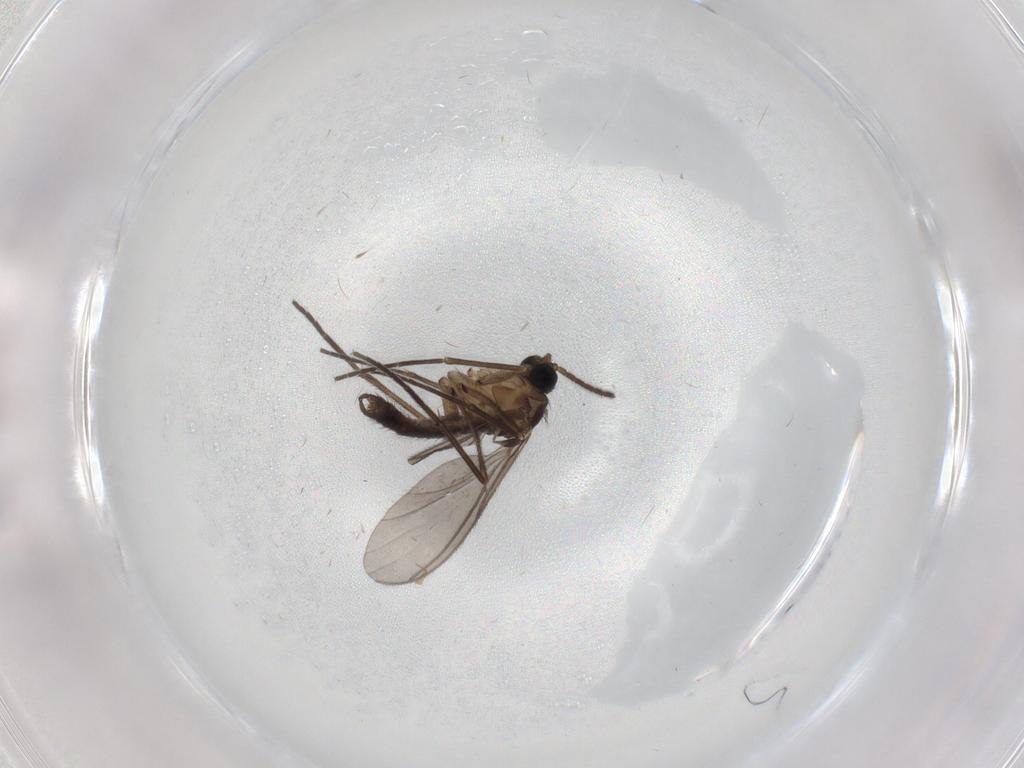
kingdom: Animalia
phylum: Arthropoda
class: Insecta
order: Diptera
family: Sciaridae
